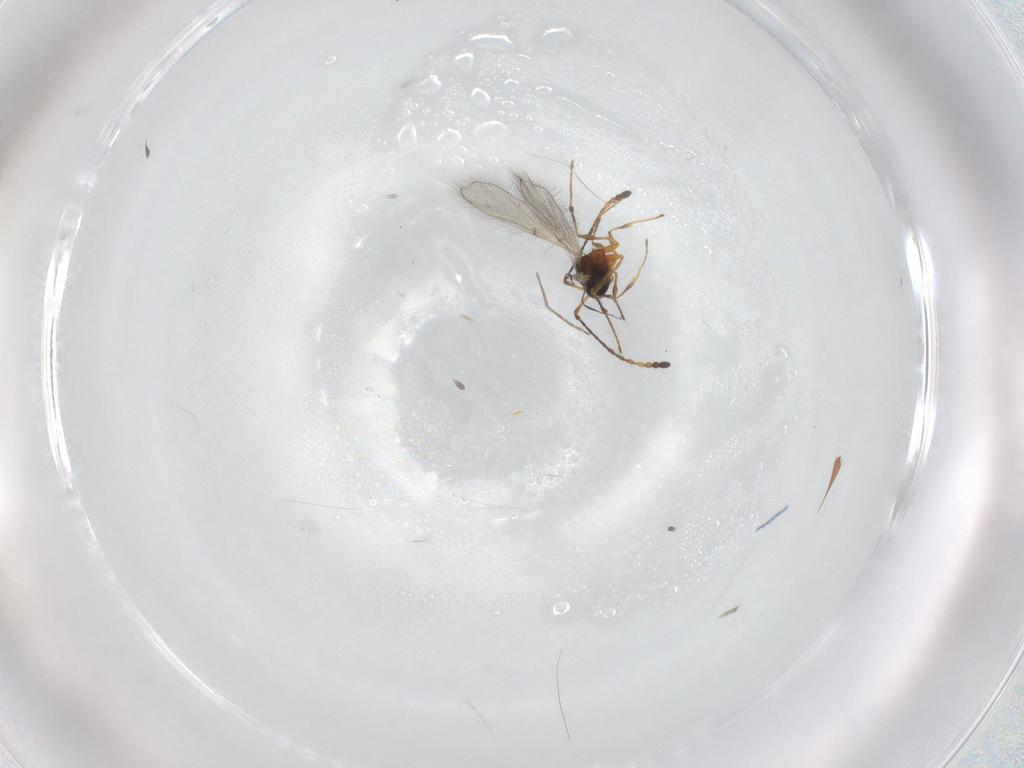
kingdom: Animalia
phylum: Arthropoda
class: Insecta
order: Hymenoptera
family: Diapriidae
